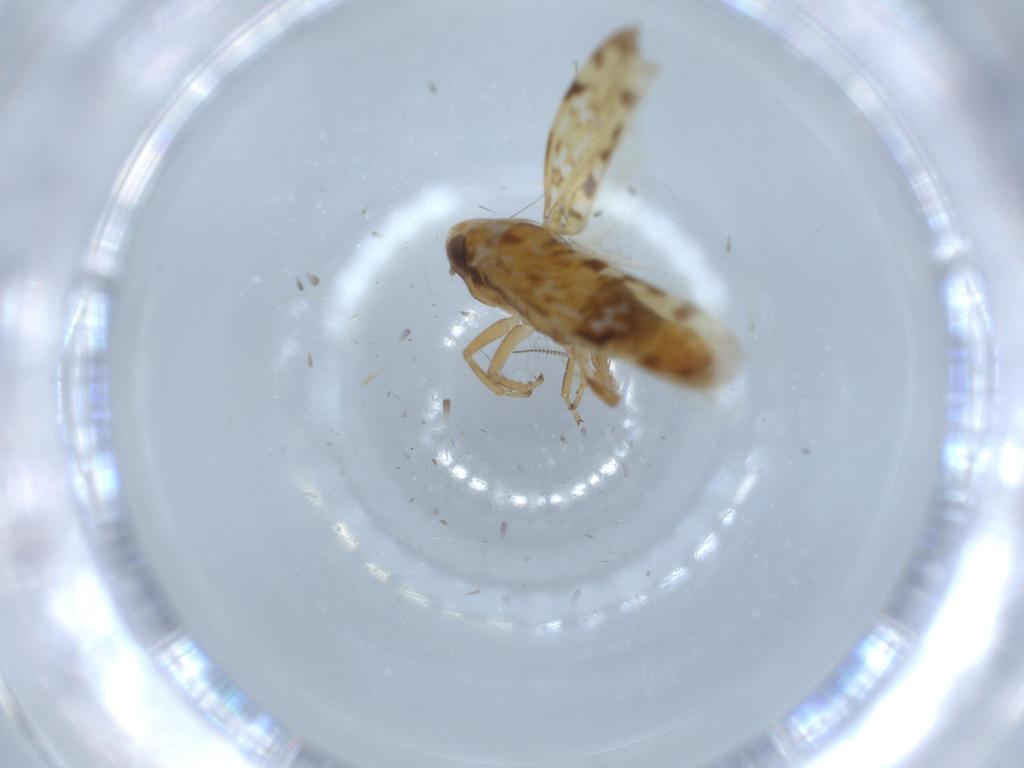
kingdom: Animalia
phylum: Arthropoda
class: Insecta
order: Hemiptera
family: Cicadellidae
